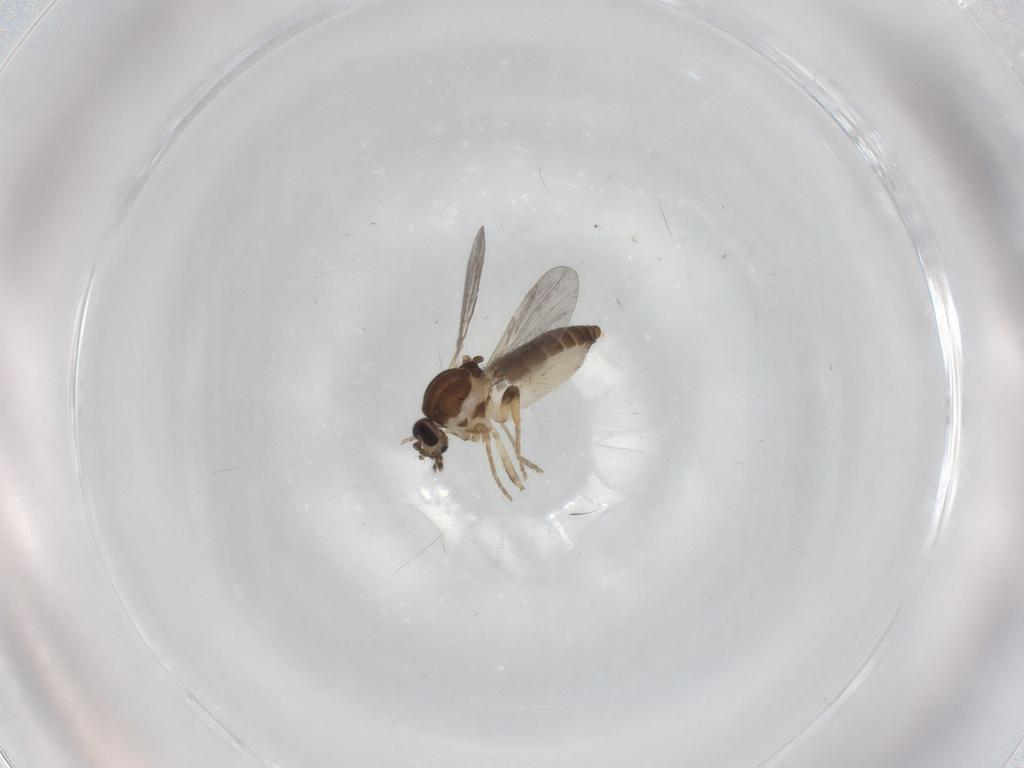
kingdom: Animalia
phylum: Arthropoda
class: Insecta
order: Diptera
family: Ceratopogonidae
